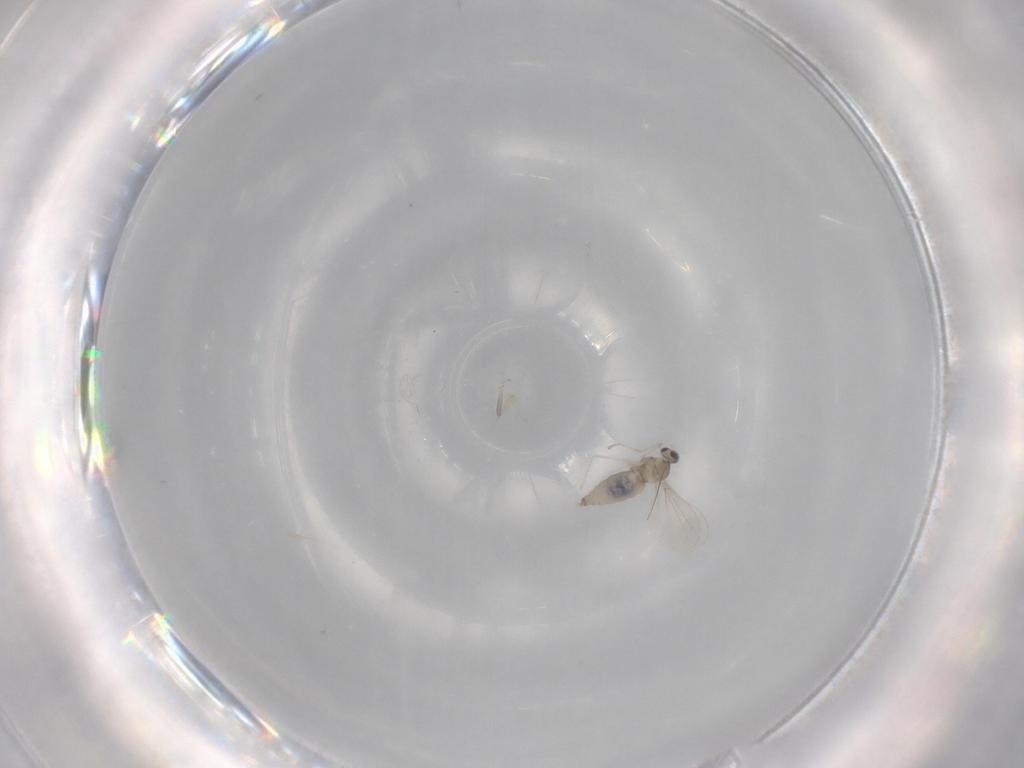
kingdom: Animalia
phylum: Arthropoda
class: Insecta
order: Diptera
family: Cecidomyiidae
